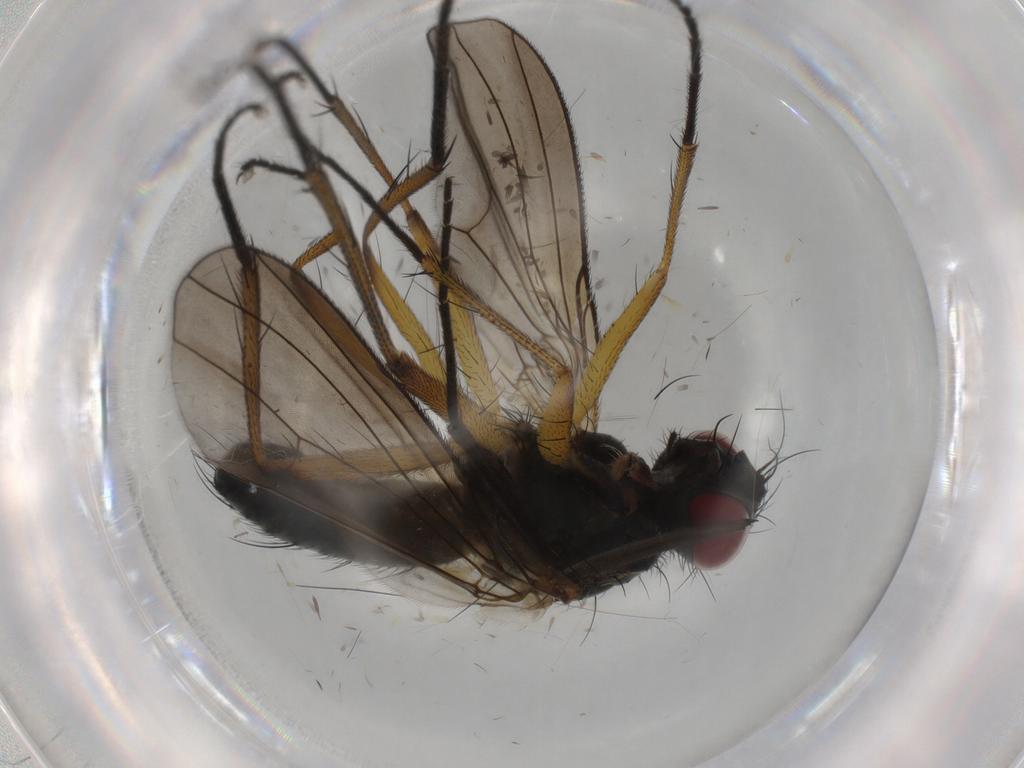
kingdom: Animalia
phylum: Arthropoda
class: Insecta
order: Diptera
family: Muscidae
